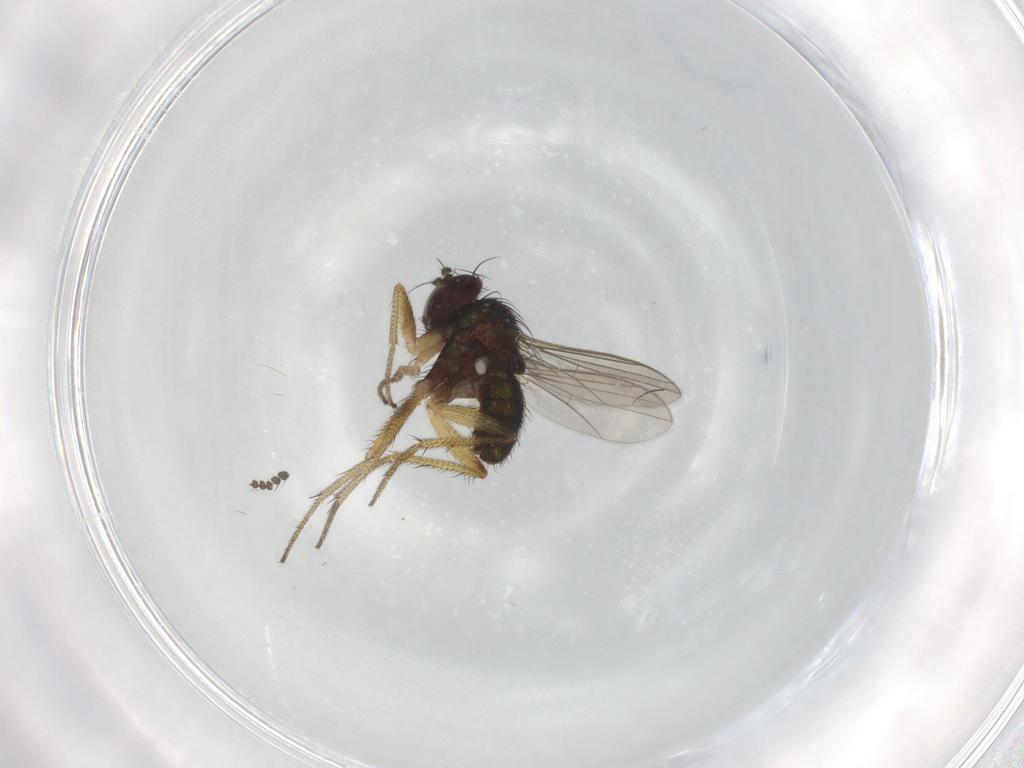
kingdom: Animalia
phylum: Arthropoda
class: Insecta
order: Diptera
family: Dolichopodidae
